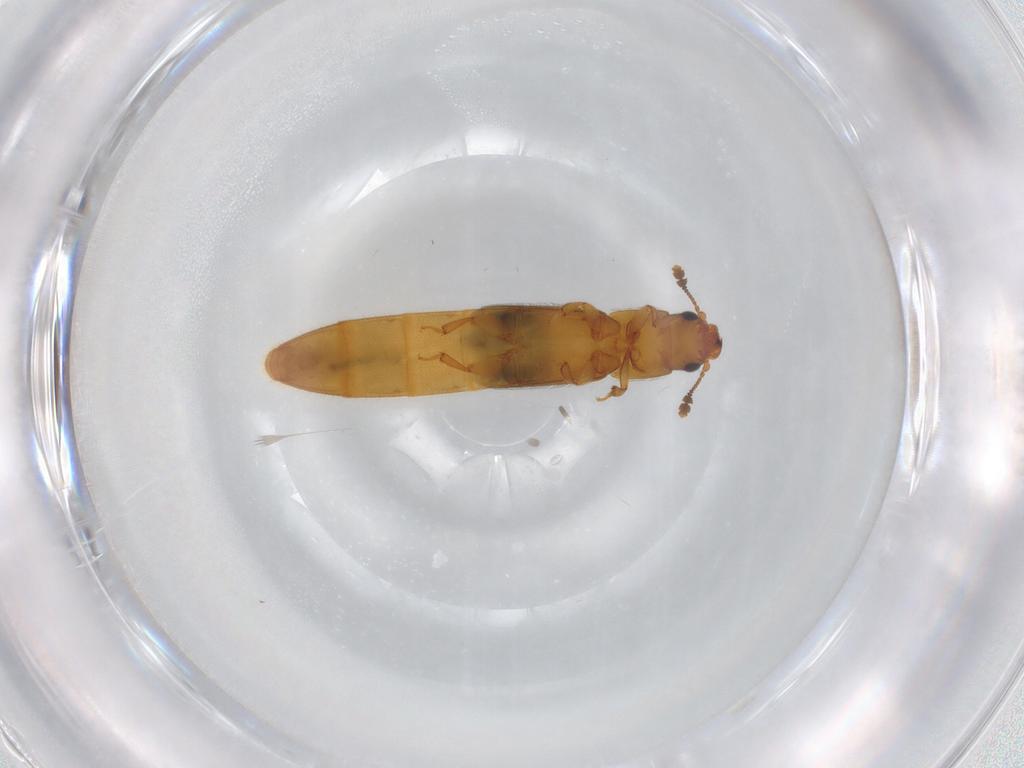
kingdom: Animalia
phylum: Arthropoda
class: Insecta
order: Coleoptera
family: Nitidulidae
